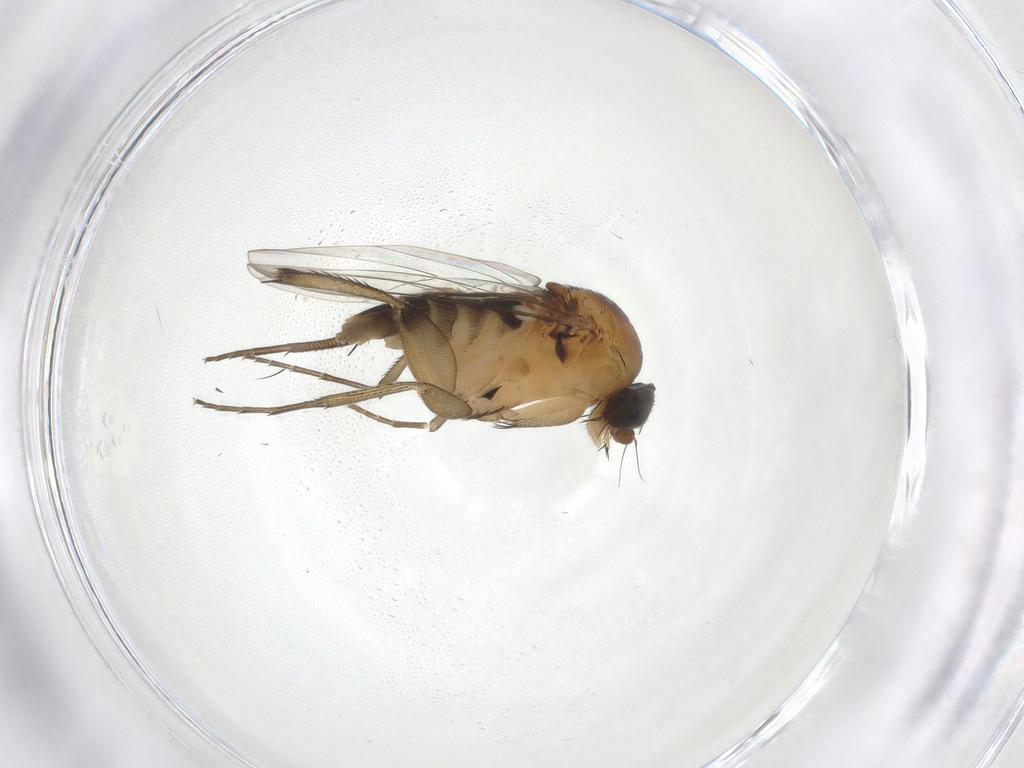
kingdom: Animalia
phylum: Arthropoda
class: Insecta
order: Diptera
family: Phoridae
